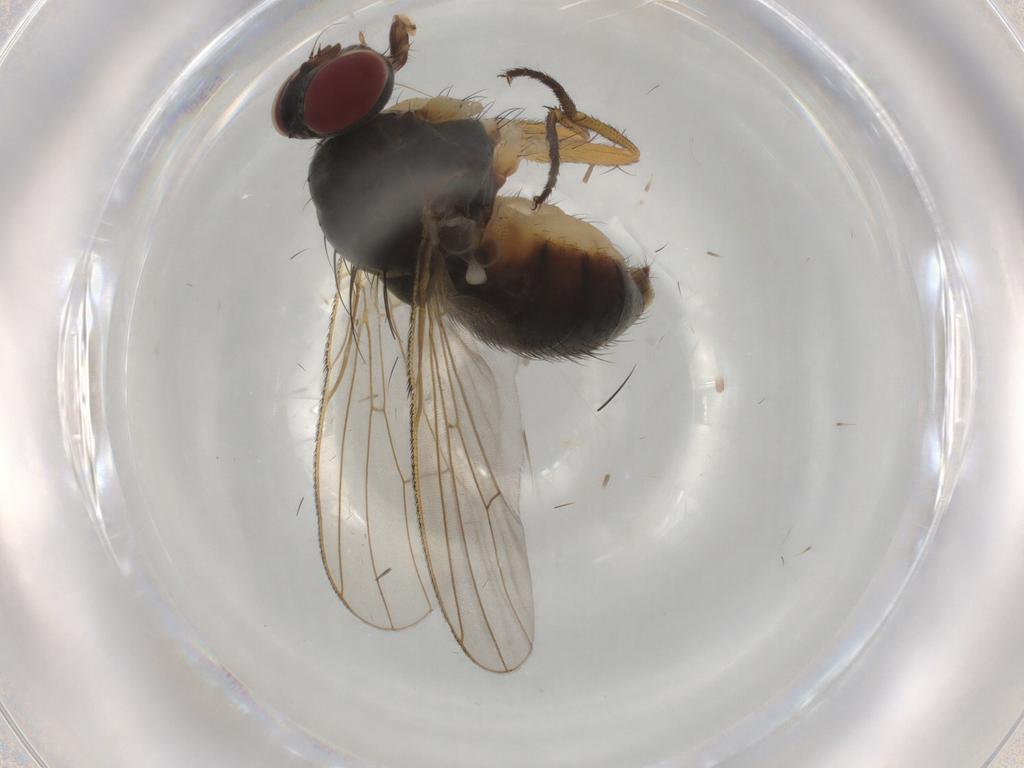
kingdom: Animalia
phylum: Arthropoda
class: Insecta
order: Diptera
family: Muscidae
